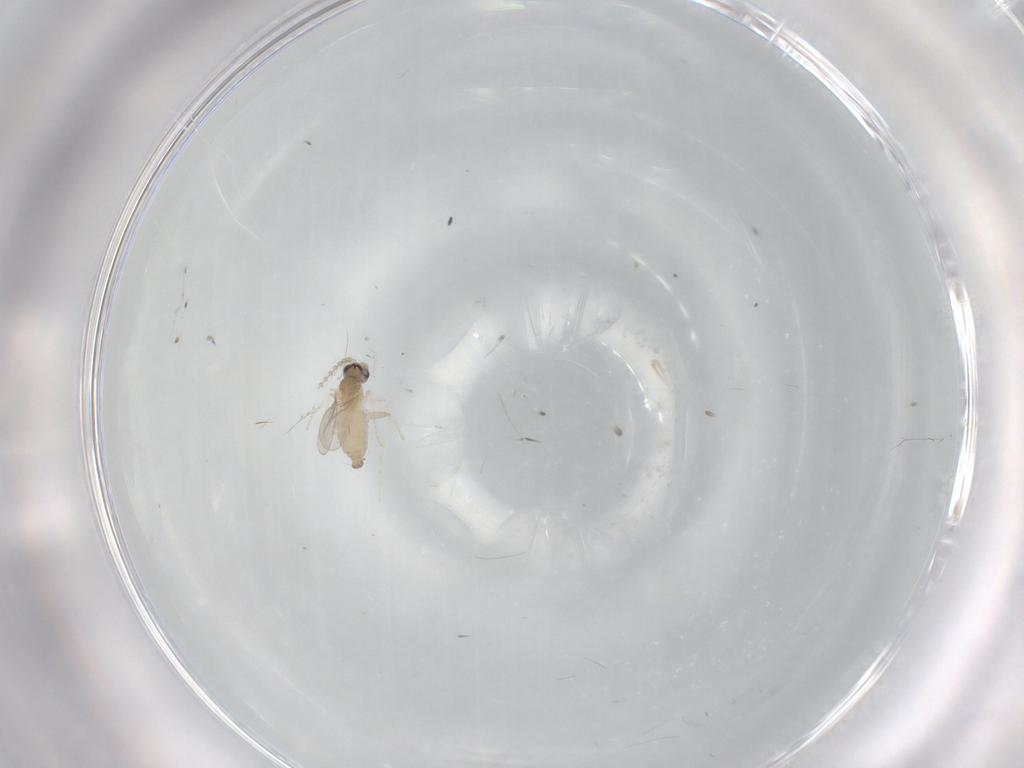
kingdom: Animalia
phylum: Arthropoda
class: Insecta
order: Diptera
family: Cecidomyiidae
